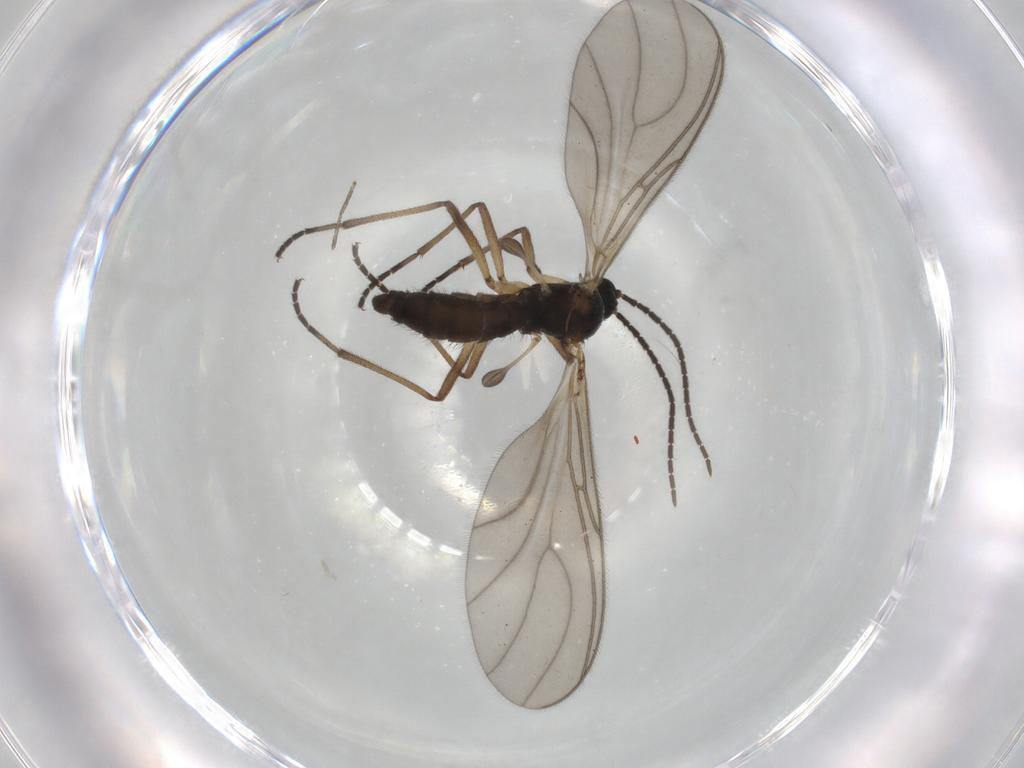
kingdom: Animalia
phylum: Arthropoda
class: Insecta
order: Diptera
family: Sciaridae
